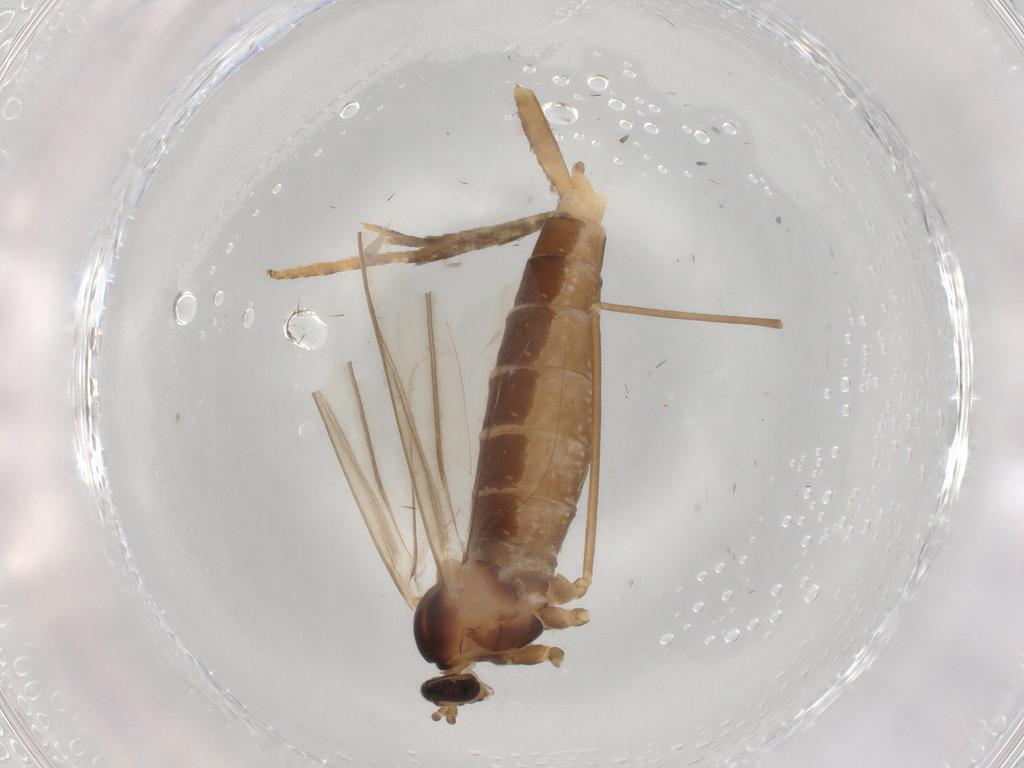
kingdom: Animalia
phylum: Arthropoda
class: Insecta
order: Diptera
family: Cecidomyiidae
